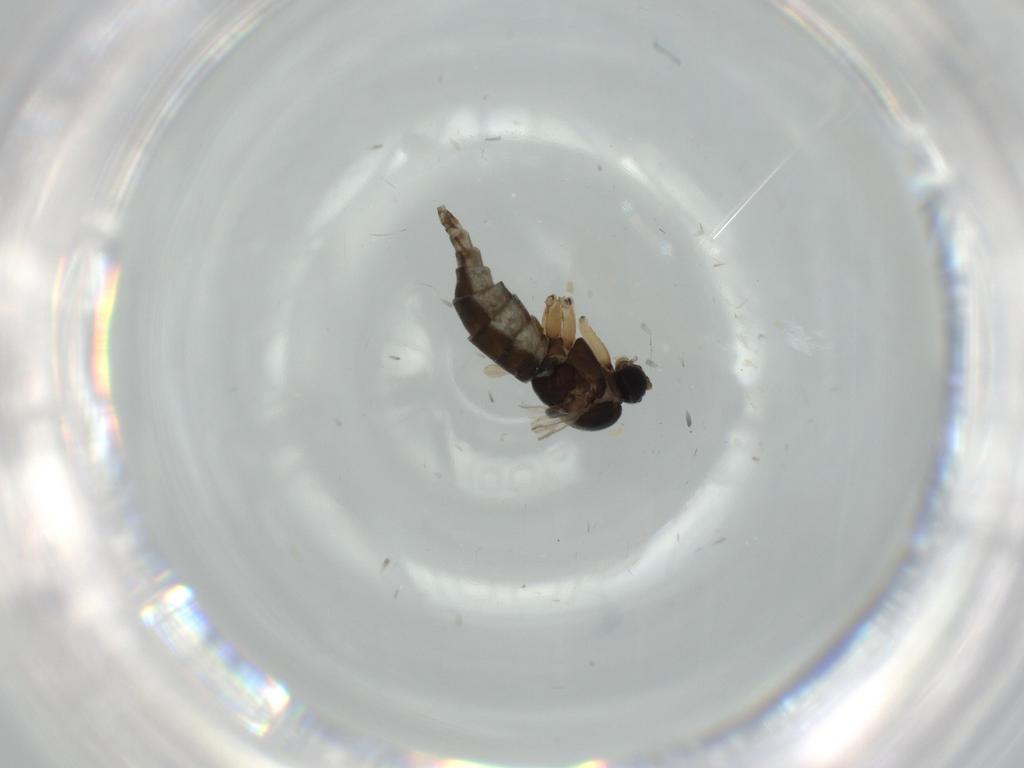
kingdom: Animalia
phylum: Arthropoda
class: Insecta
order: Diptera
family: Sciaridae
